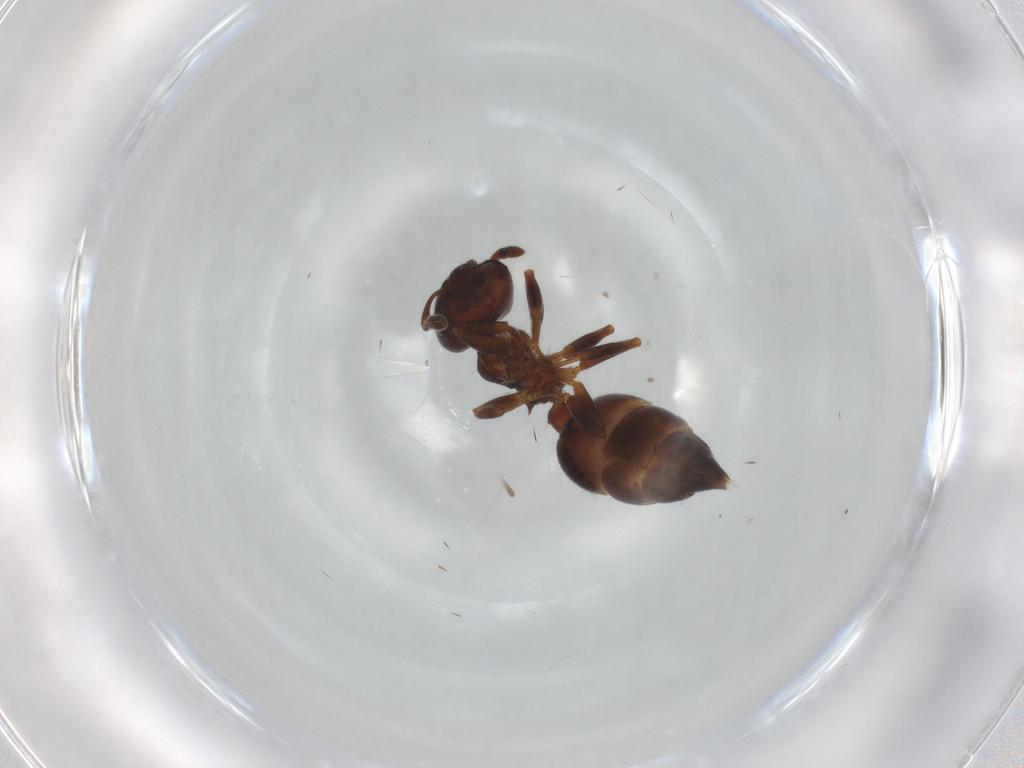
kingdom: Animalia
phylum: Arthropoda
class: Insecta
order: Hymenoptera
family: Formicidae
